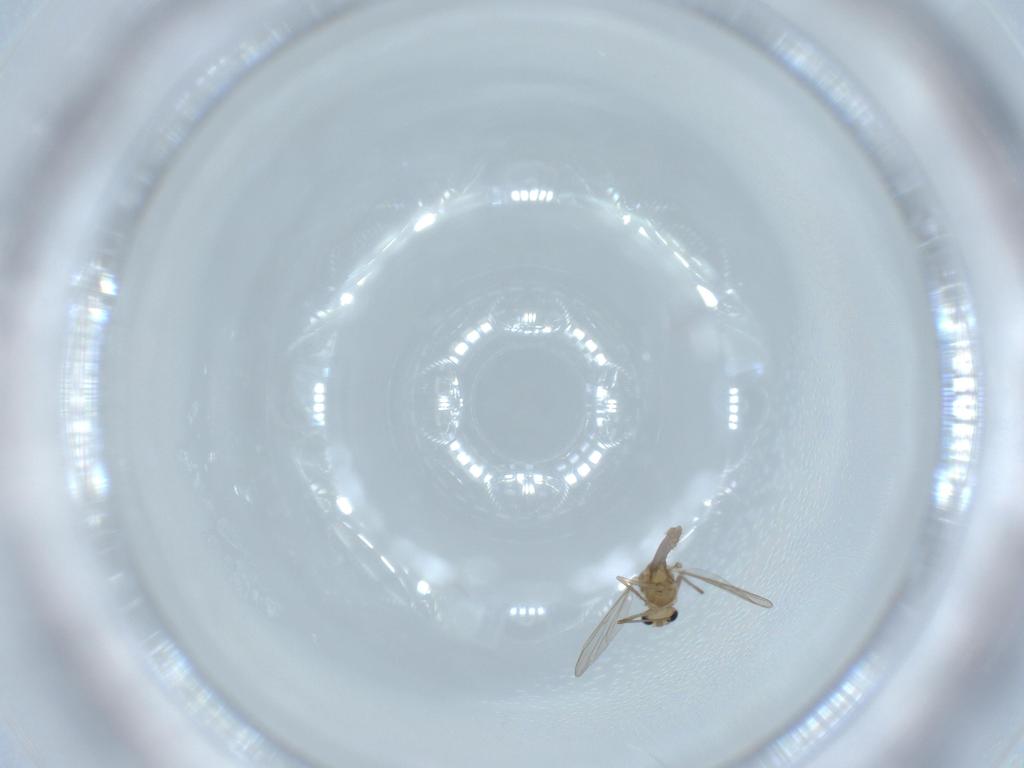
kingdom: Animalia
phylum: Arthropoda
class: Insecta
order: Diptera
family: Chironomidae
